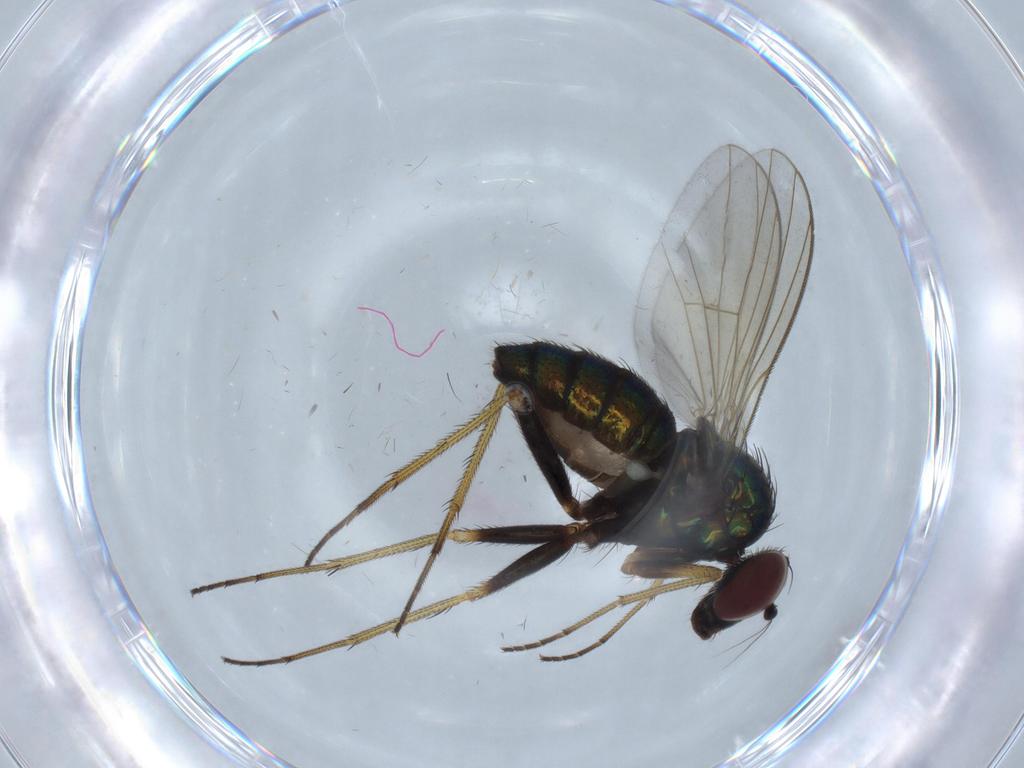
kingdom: Animalia
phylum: Arthropoda
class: Insecta
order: Diptera
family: Dolichopodidae
